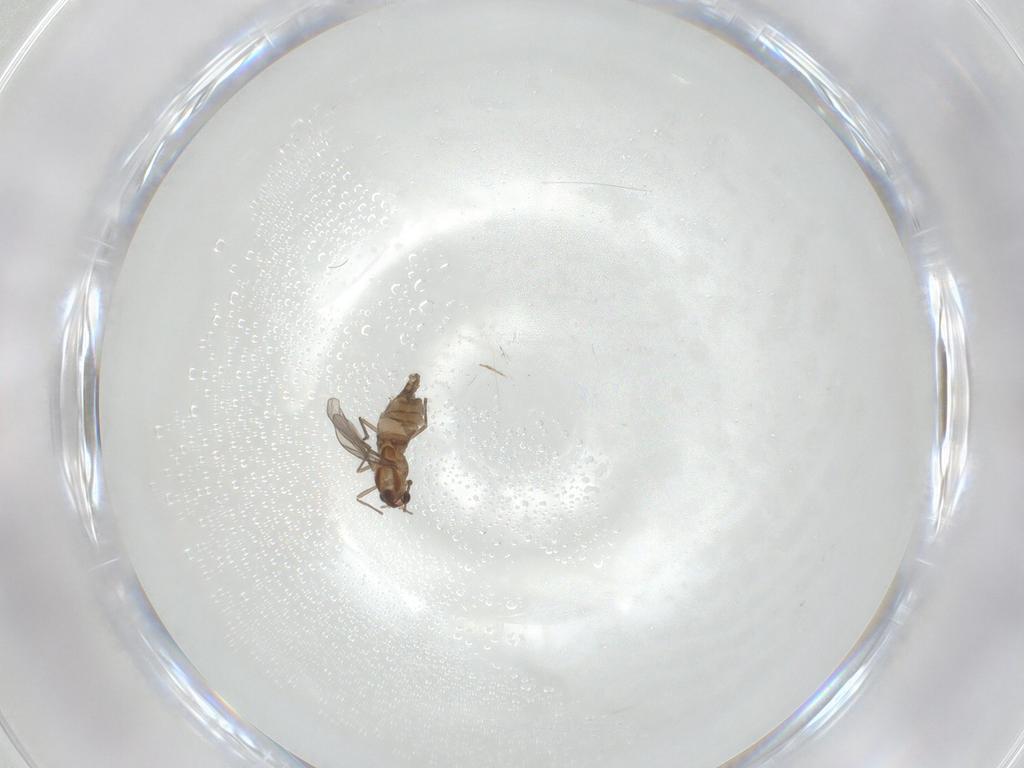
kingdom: Animalia
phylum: Arthropoda
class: Insecta
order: Diptera
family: Chironomidae
